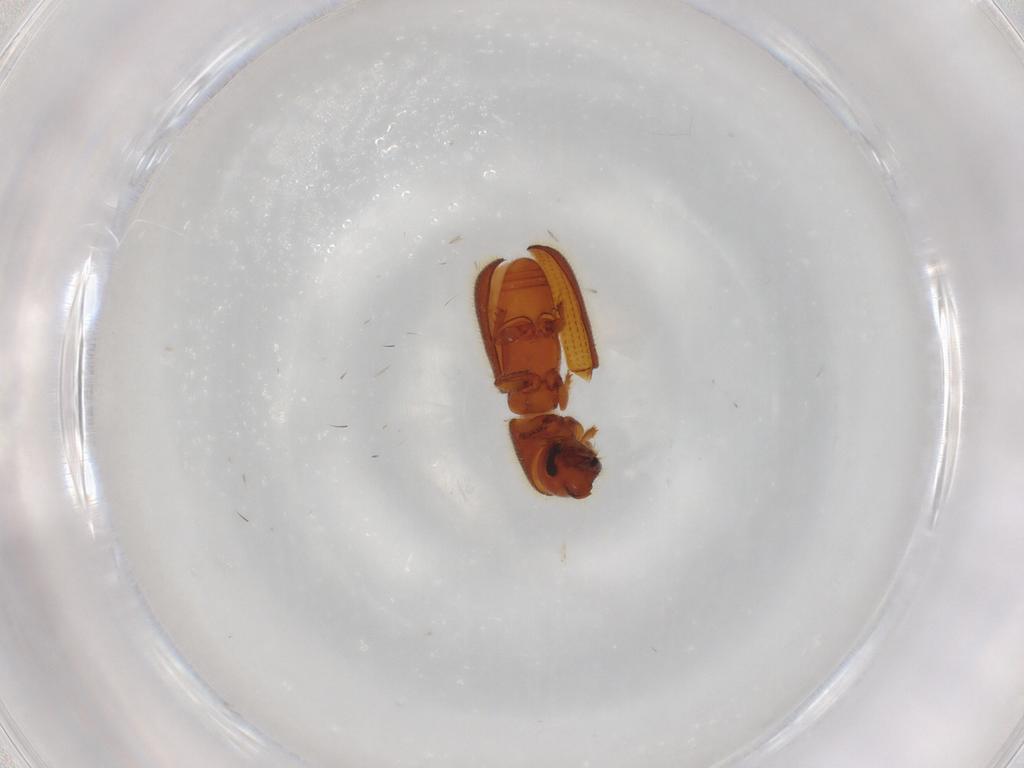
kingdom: Animalia
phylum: Arthropoda
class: Insecta
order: Coleoptera
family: Curculionidae
